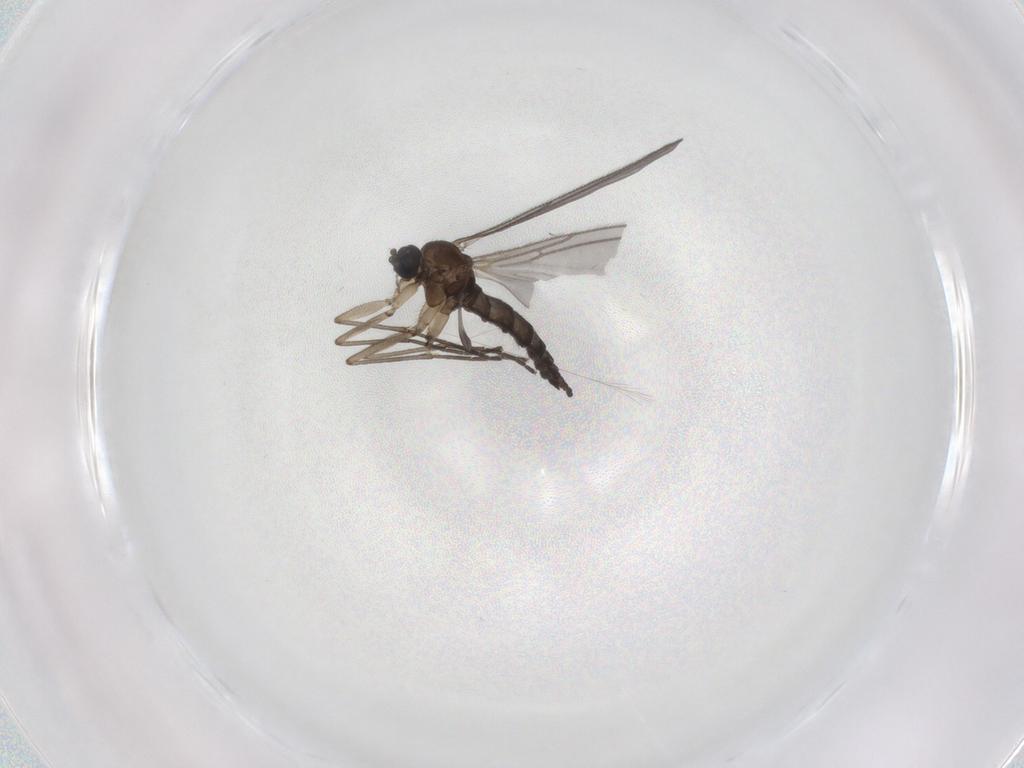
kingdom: Animalia
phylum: Arthropoda
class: Insecta
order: Diptera
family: Sciaridae
